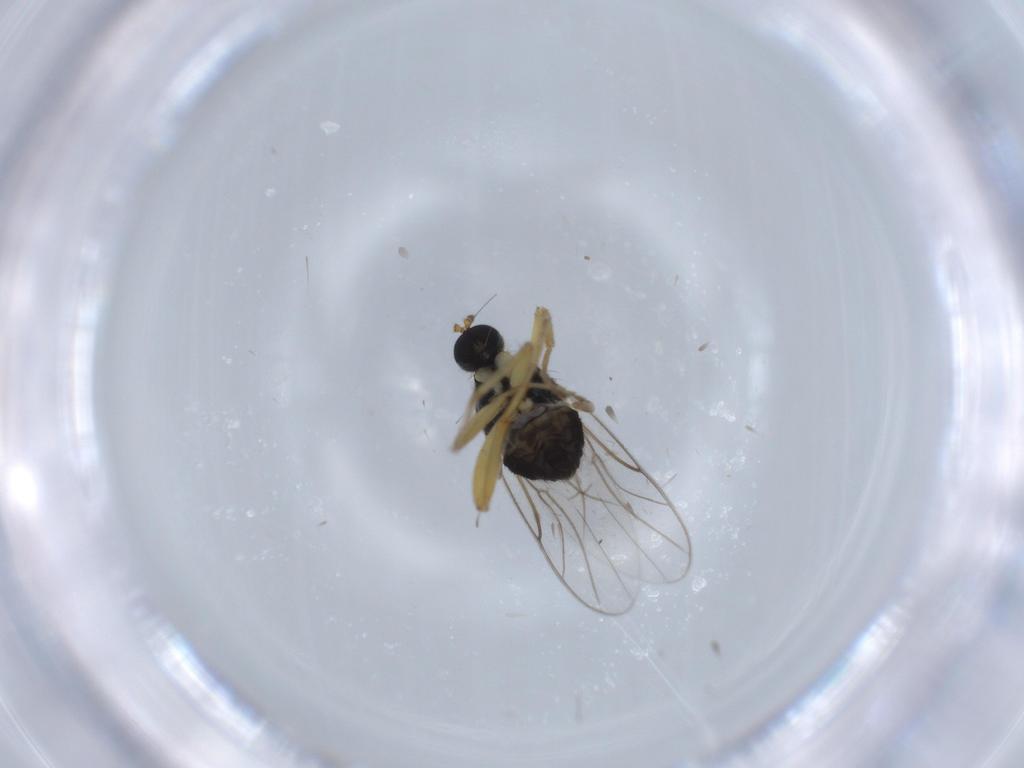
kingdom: Animalia
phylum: Arthropoda
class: Insecta
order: Diptera
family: Hybotidae
